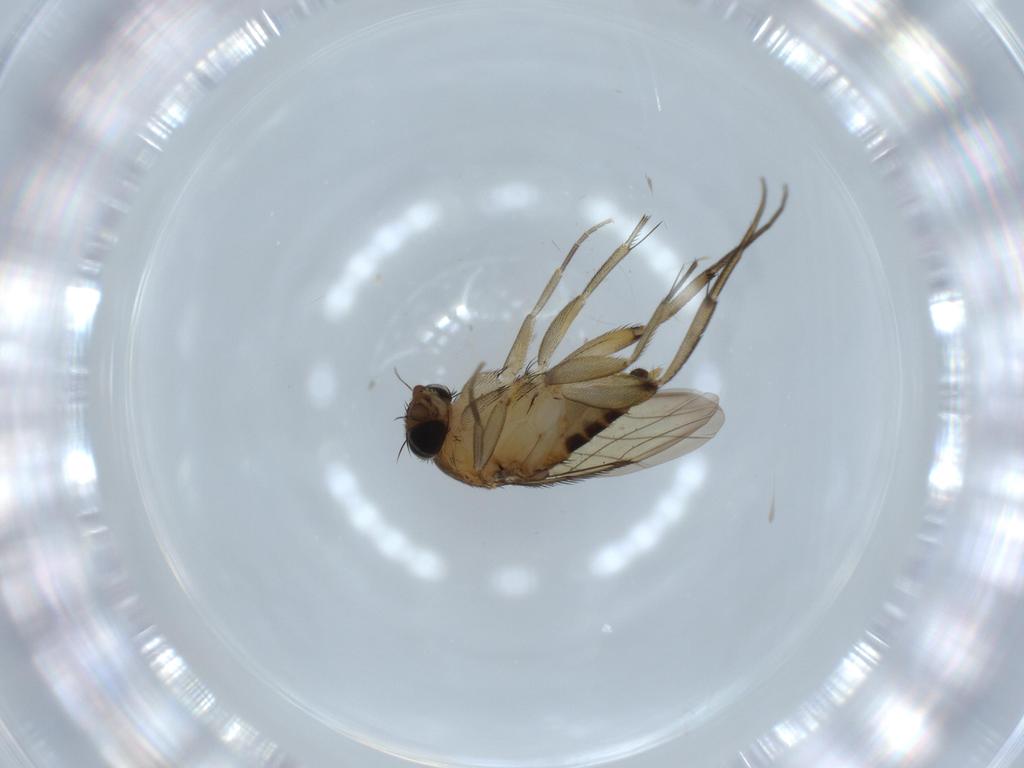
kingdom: Animalia
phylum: Arthropoda
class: Insecta
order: Diptera
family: Phoridae
